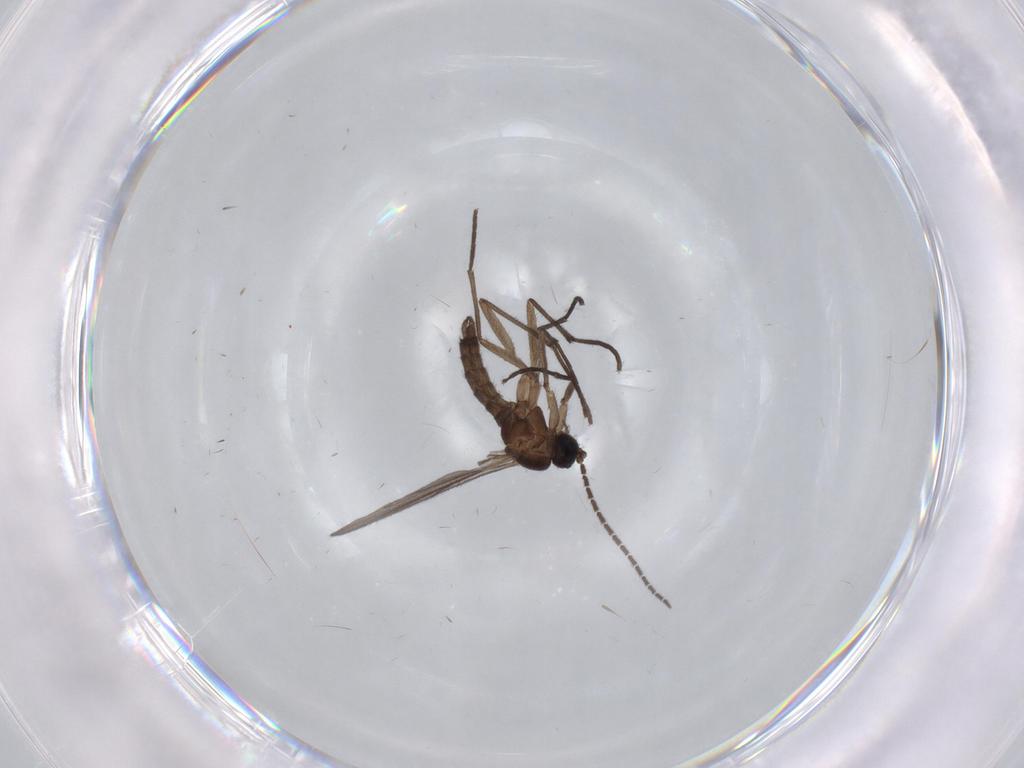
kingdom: Animalia
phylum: Arthropoda
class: Insecta
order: Diptera
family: Sciaridae
